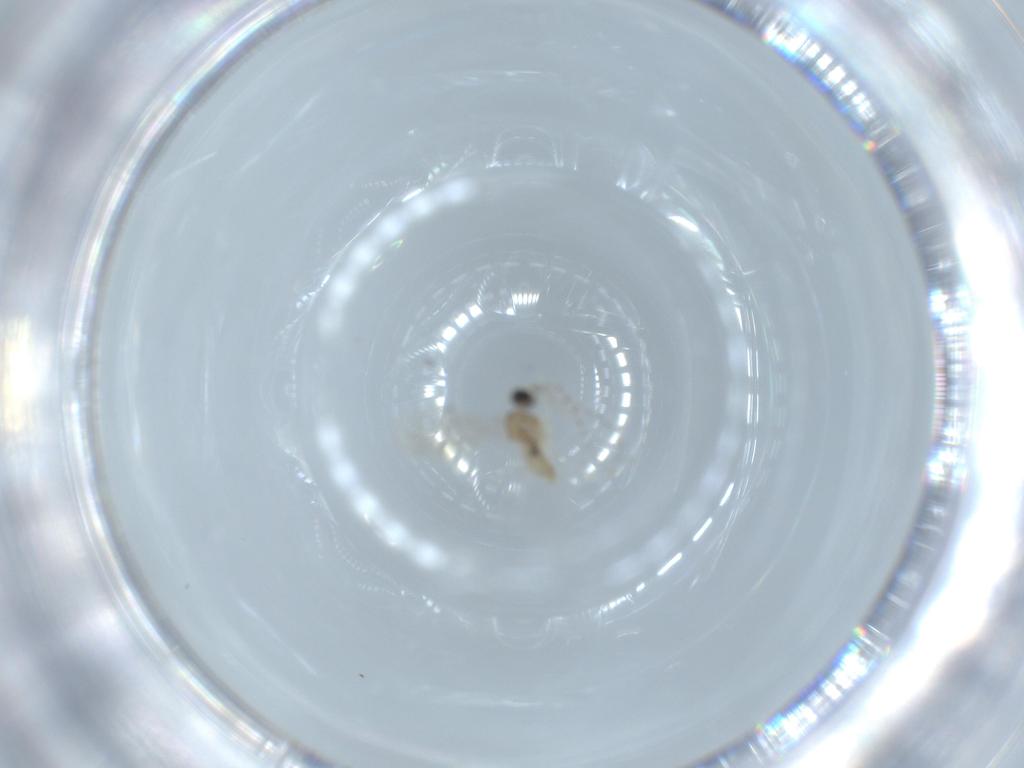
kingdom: Animalia
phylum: Arthropoda
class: Insecta
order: Diptera
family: Cecidomyiidae
